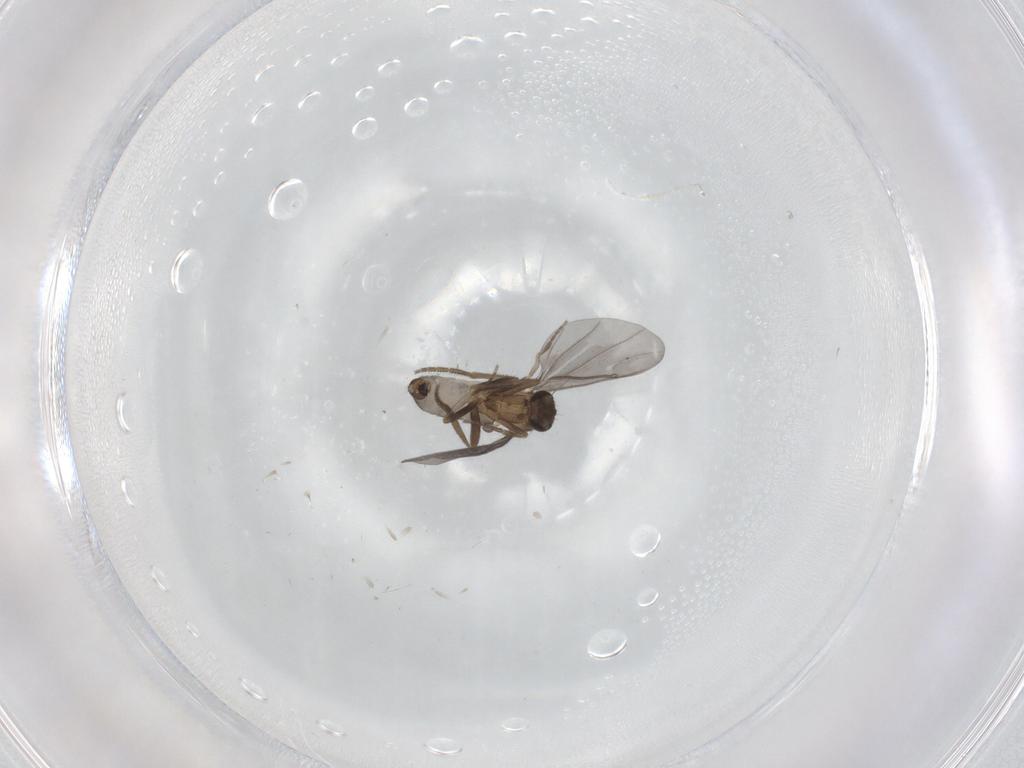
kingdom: Animalia
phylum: Arthropoda
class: Insecta
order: Diptera
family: Phoridae
